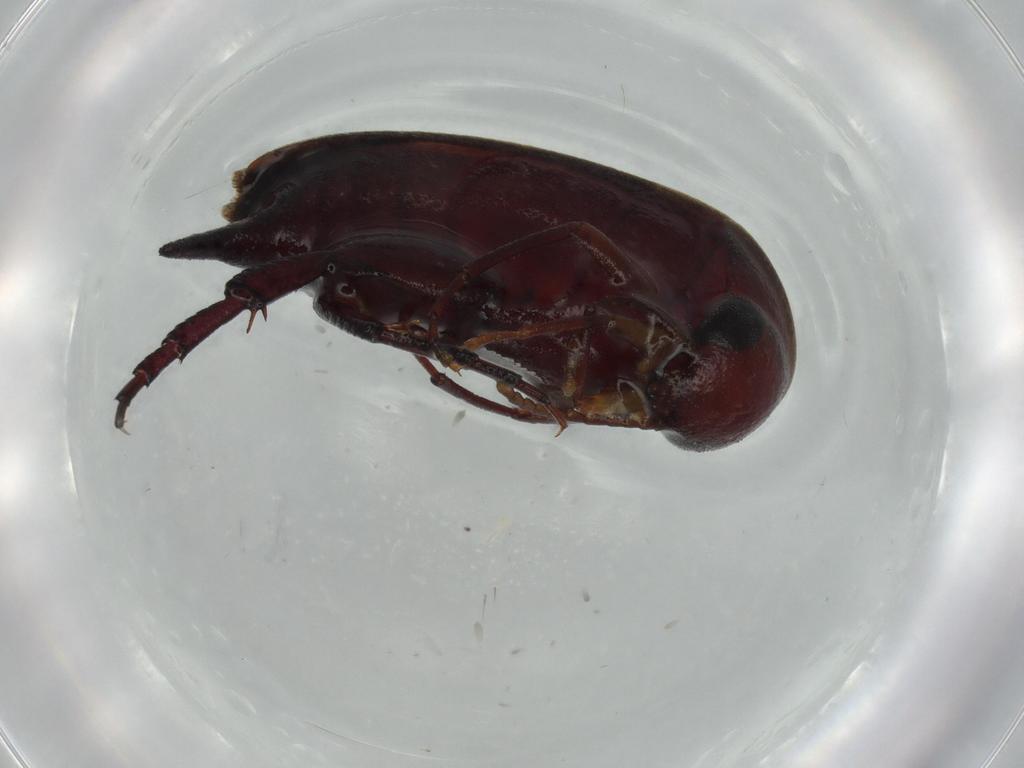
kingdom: Animalia
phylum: Arthropoda
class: Insecta
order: Coleoptera
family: Mordellidae
